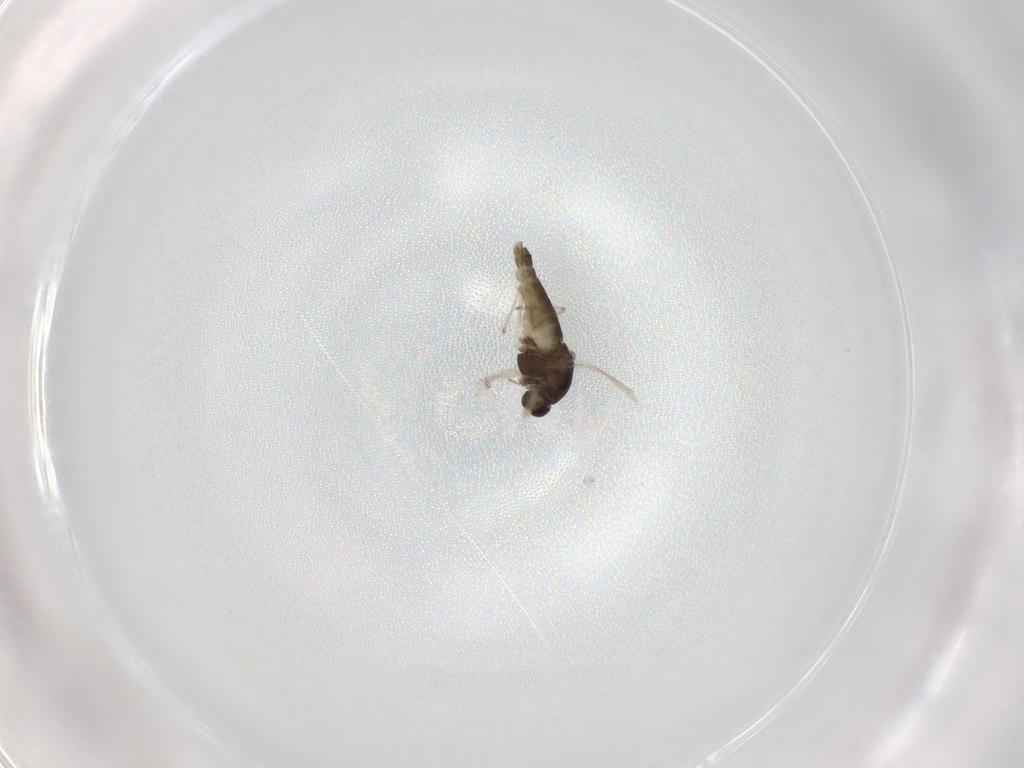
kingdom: Animalia
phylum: Arthropoda
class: Insecta
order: Diptera
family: Chironomidae
